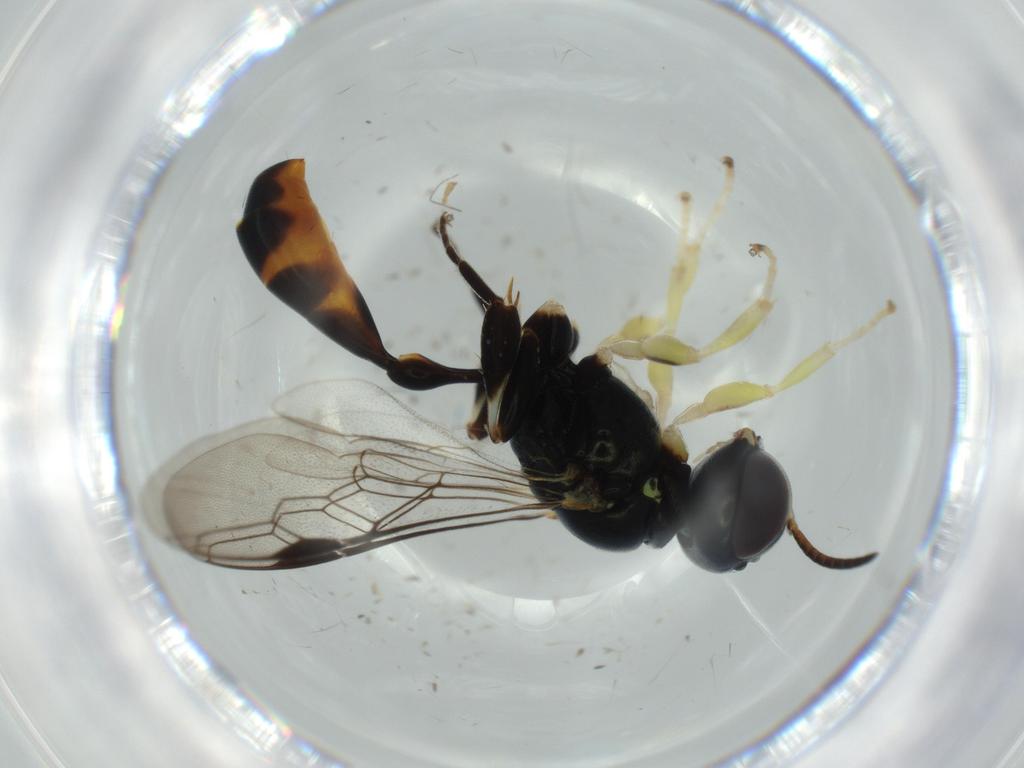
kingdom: Animalia
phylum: Arthropoda
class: Insecta
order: Hymenoptera
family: Crabronidae
